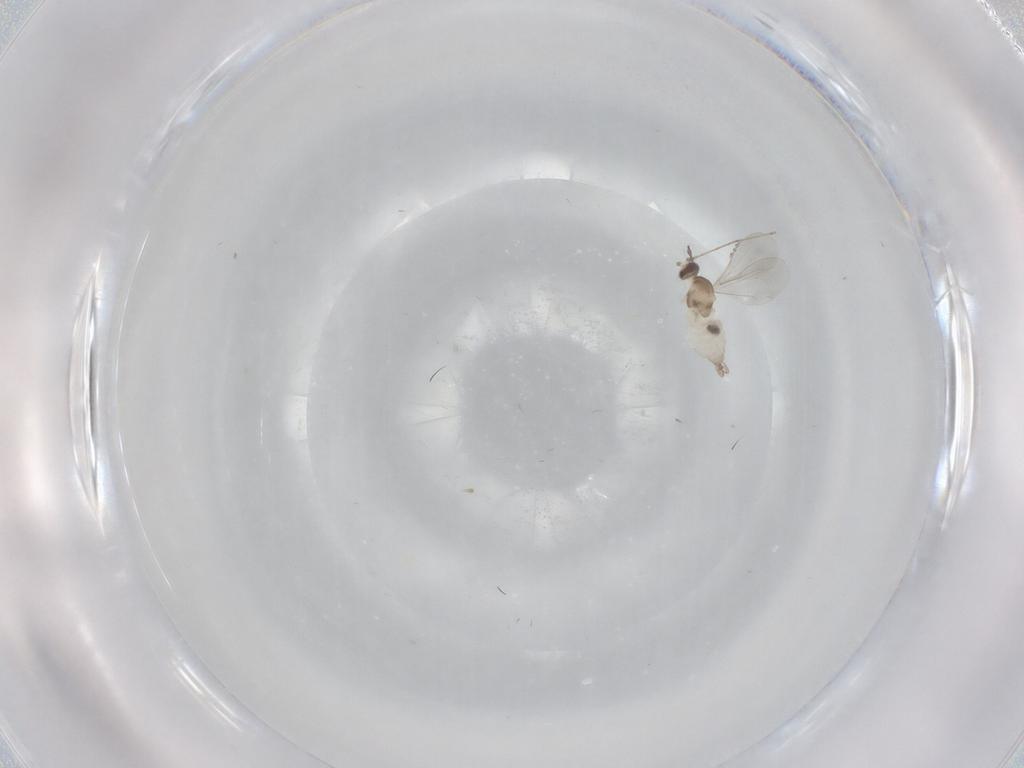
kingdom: Animalia
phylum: Arthropoda
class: Insecta
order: Diptera
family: Cecidomyiidae
